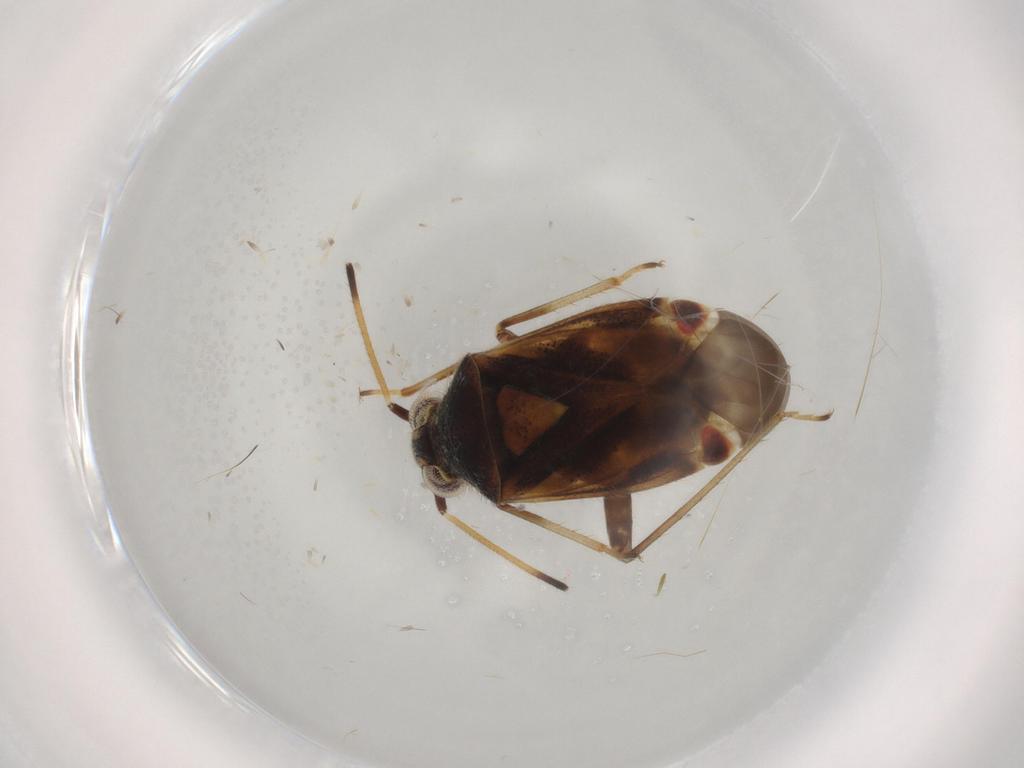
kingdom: Animalia
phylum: Arthropoda
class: Insecta
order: Hemiptera
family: Miridae
